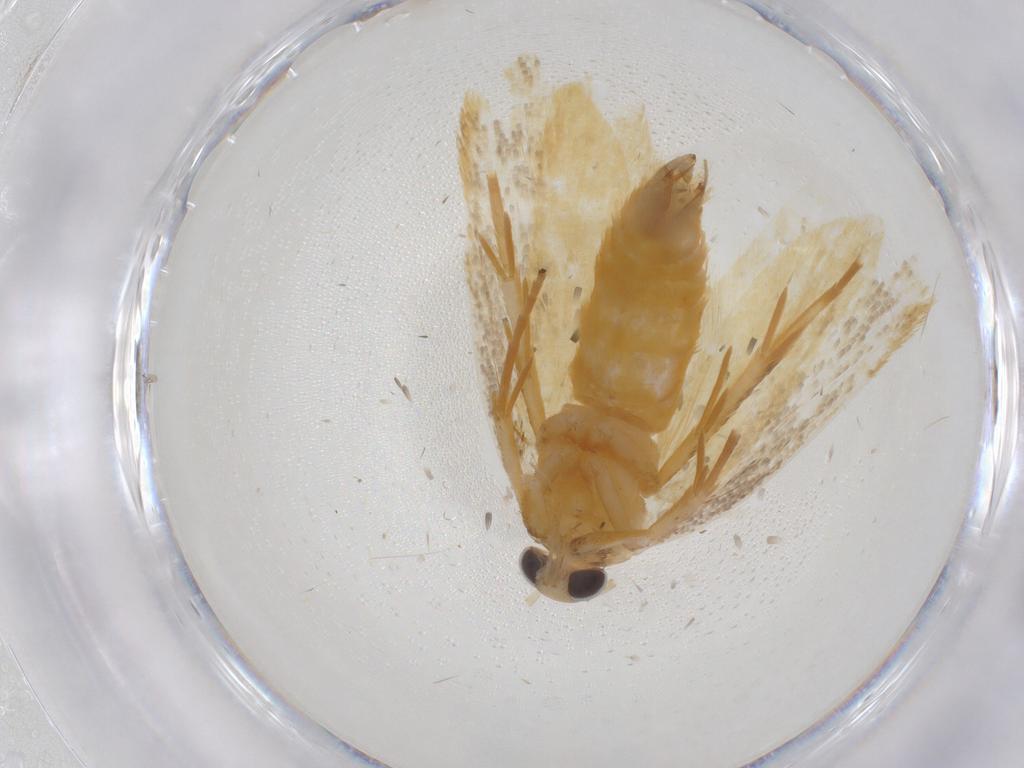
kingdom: Animalia
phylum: Arthropoda
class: Insecta
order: Lepidoptera
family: Oecophoridae
